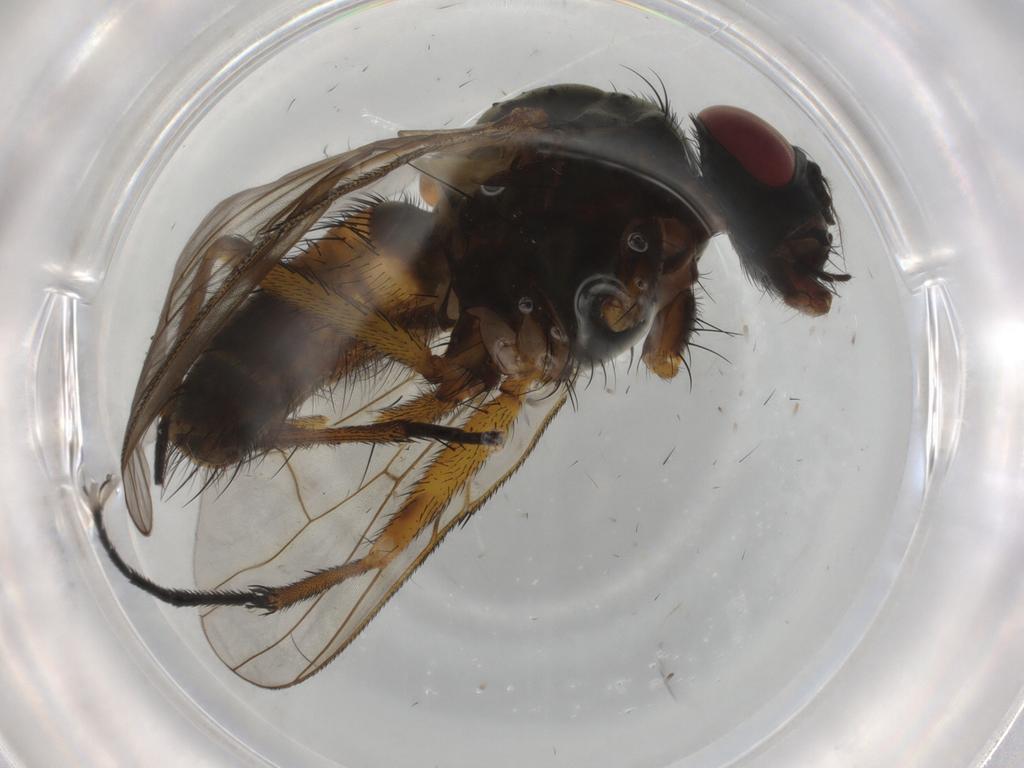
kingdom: Animalia
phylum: Arthropoda
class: Insecta
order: Diptera
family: Muscidae
